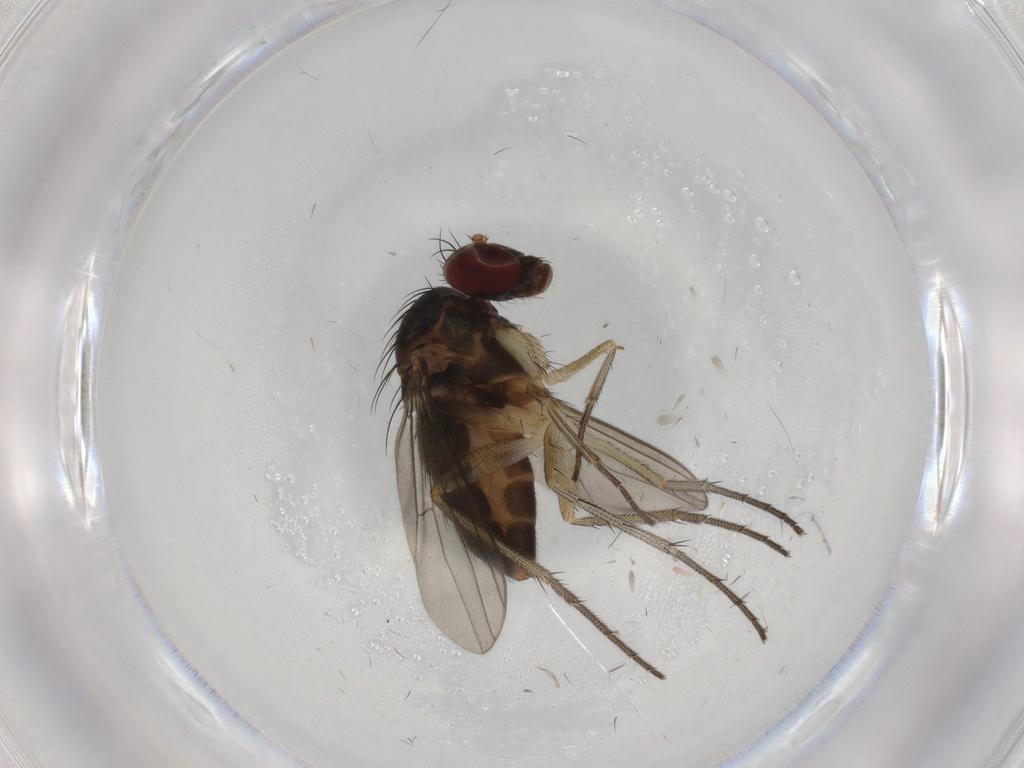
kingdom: Animalia
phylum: Arthropoda
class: Insecta
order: Diptera
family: Dolichopodidae
